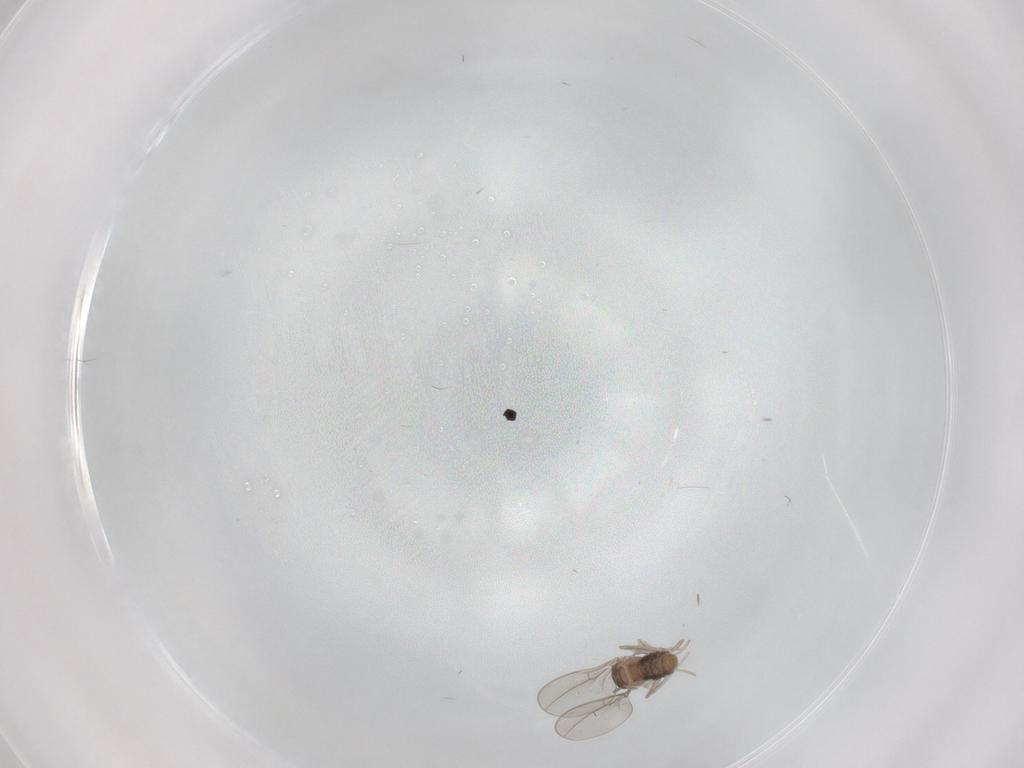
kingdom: Animalia
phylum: Arthropoda
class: Insecta
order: Diptera
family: Cecidomyiidae
